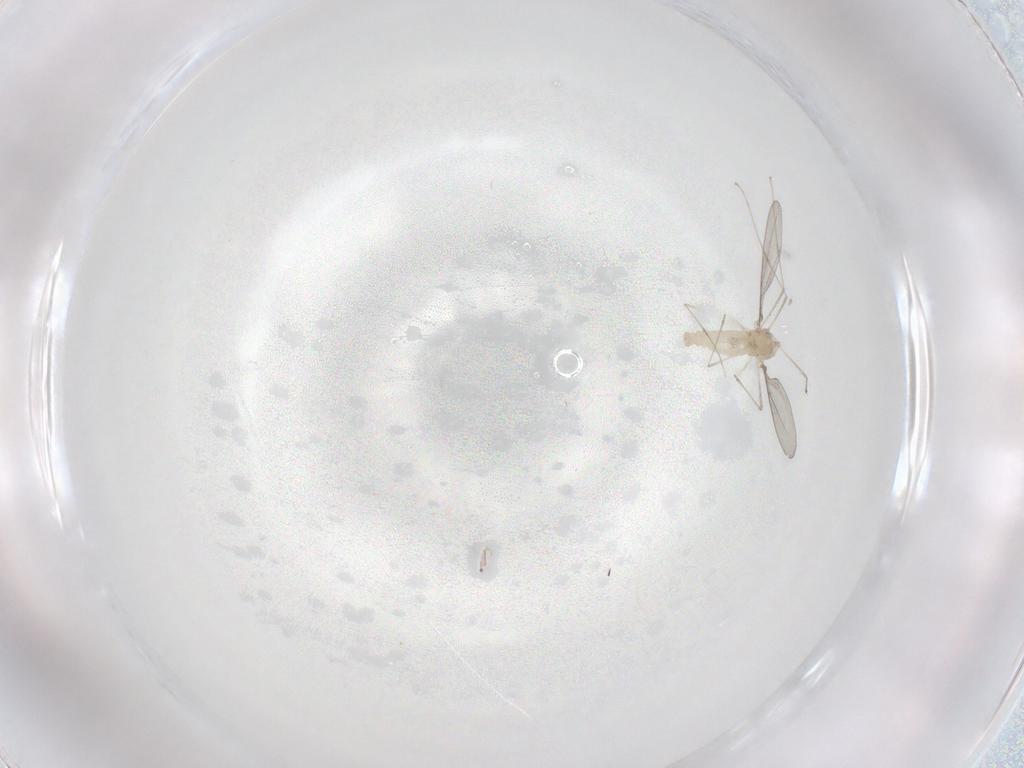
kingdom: Animalia
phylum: Arthropoda
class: Insecta
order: Diptera
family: Cecidomyiidae
